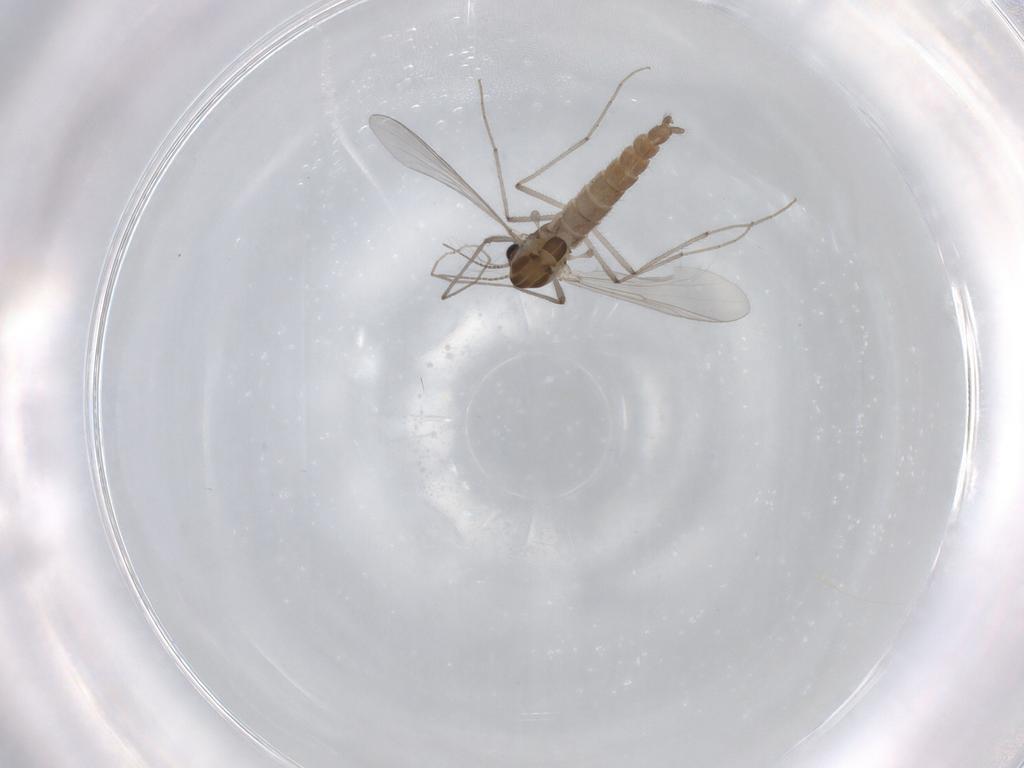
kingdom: Animalia
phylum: Arthropoda
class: Insecta
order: Diptera
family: Chironomidae
